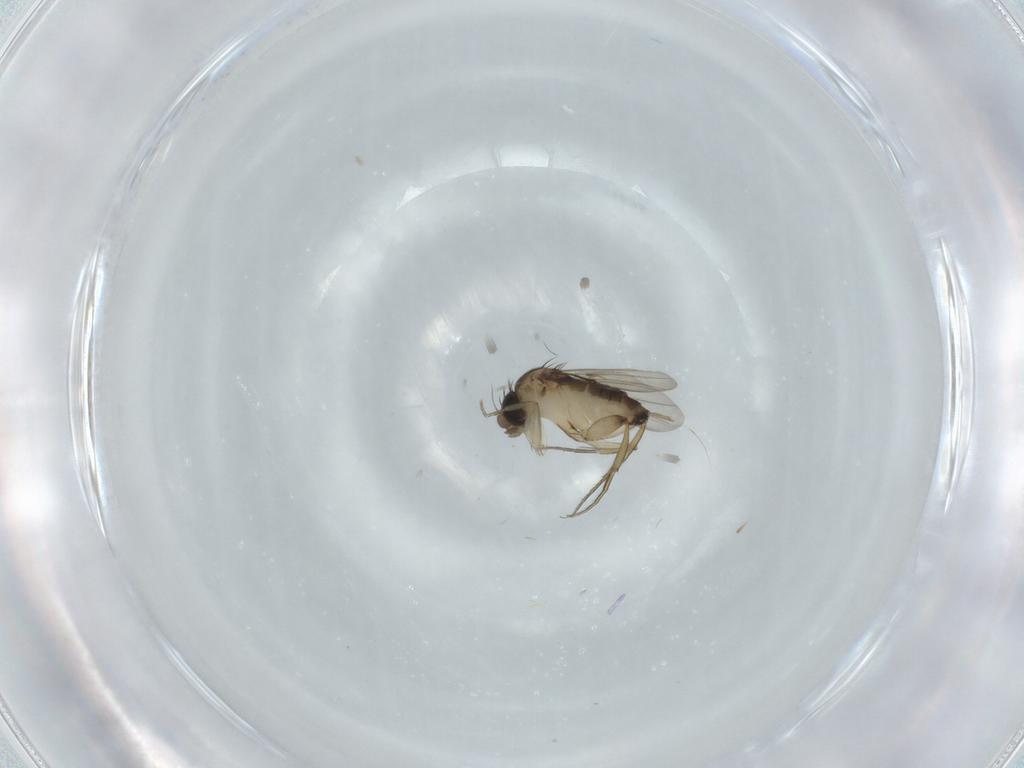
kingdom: Animalia
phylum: Arthropoda
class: Insecta
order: Diptera
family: Phoridae
